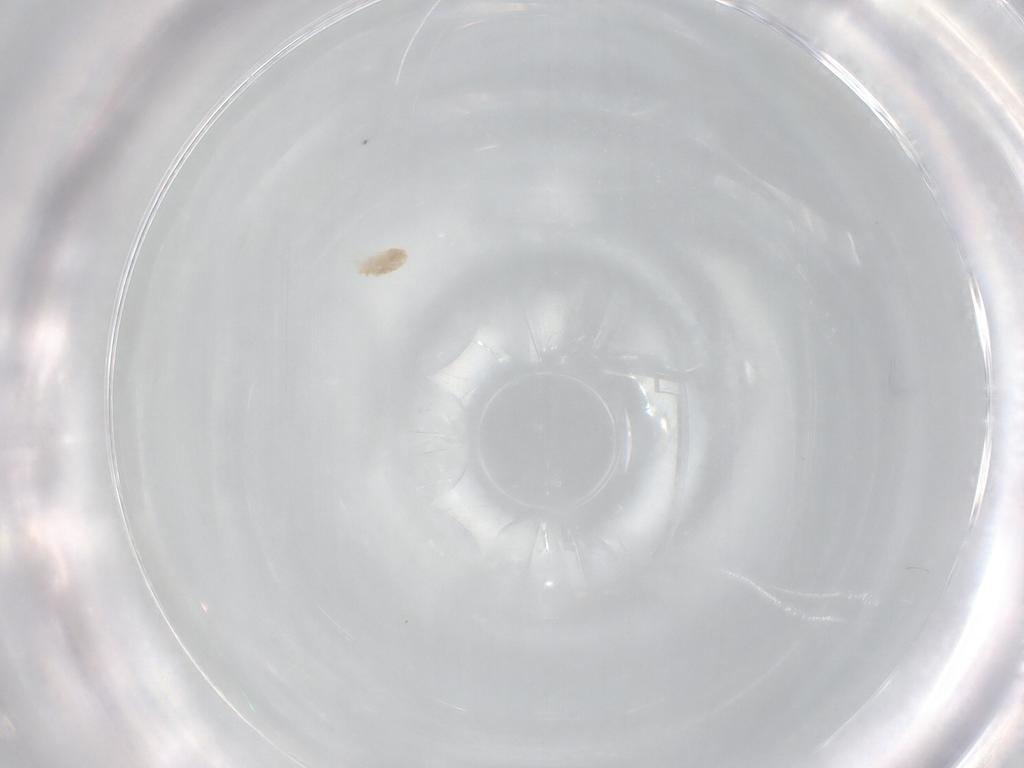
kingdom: Animalia
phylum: Arthropoda
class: Arachnida
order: Trombidiformes
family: Eupodidae
